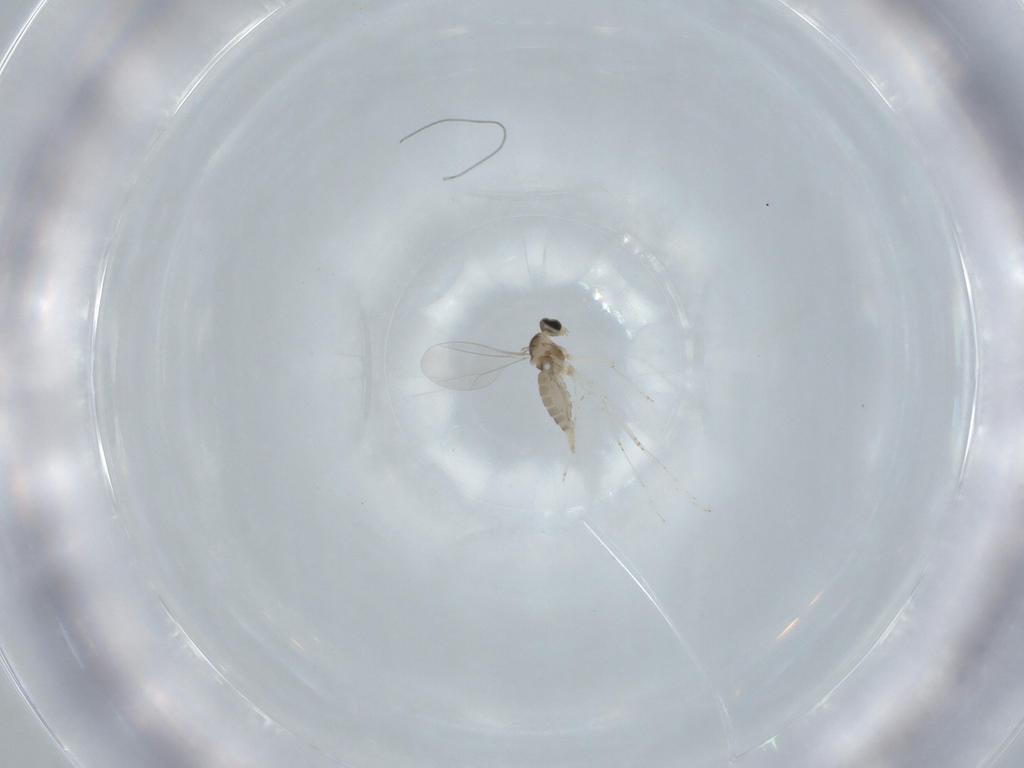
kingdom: Animalia
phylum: Arthropoda
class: Insecta
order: Diptera
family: Cecidomyiidae
